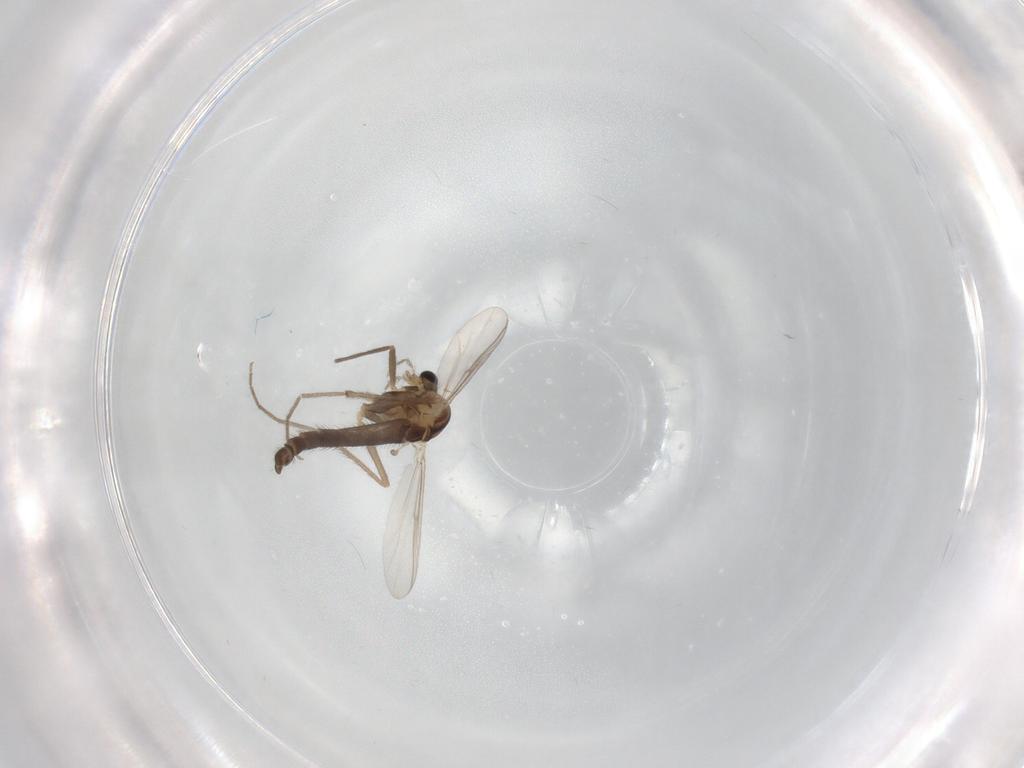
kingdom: Animalia
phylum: Arthropoda
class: Insecta
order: Diptera
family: Chironomidae
